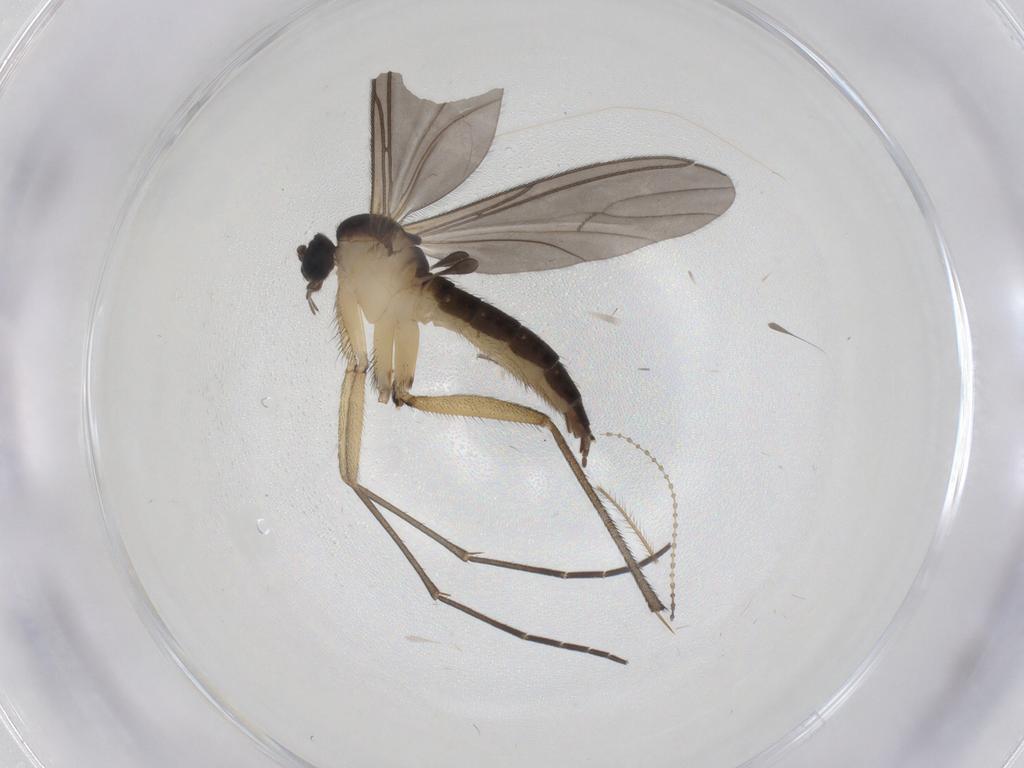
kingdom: Animalia
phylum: Arthropoda
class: Insecta
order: Diptera
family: Sciaridae
